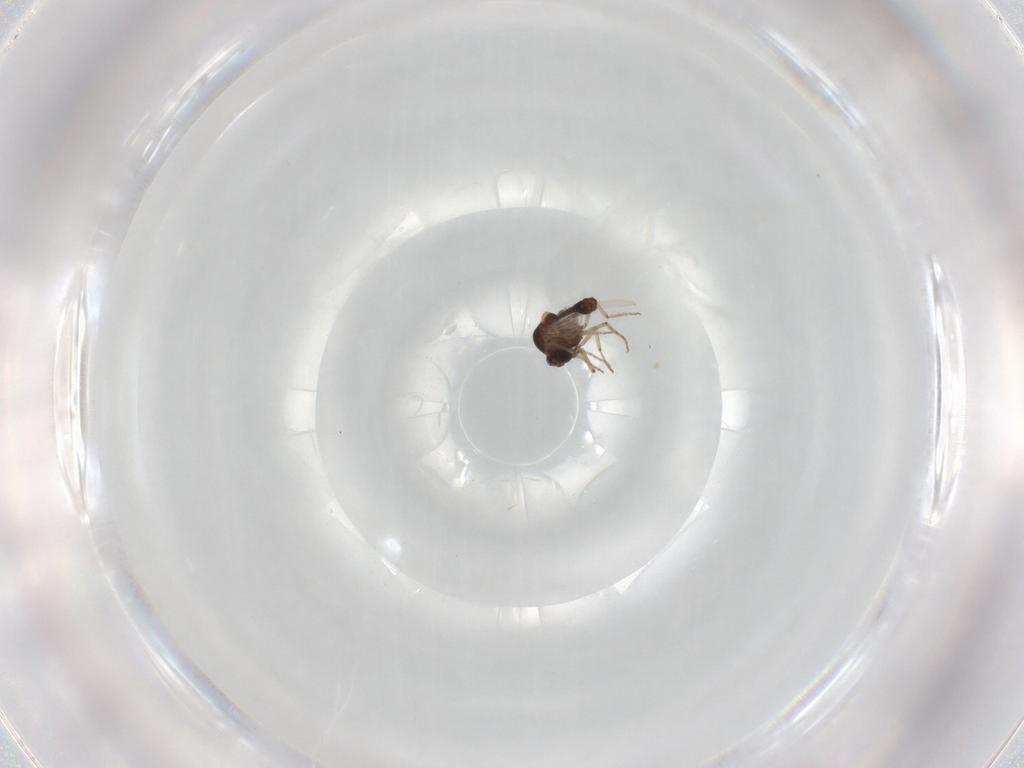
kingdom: Animalia
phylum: Arthropoda
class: Insecta
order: Diptera
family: Ceratopogonidae
